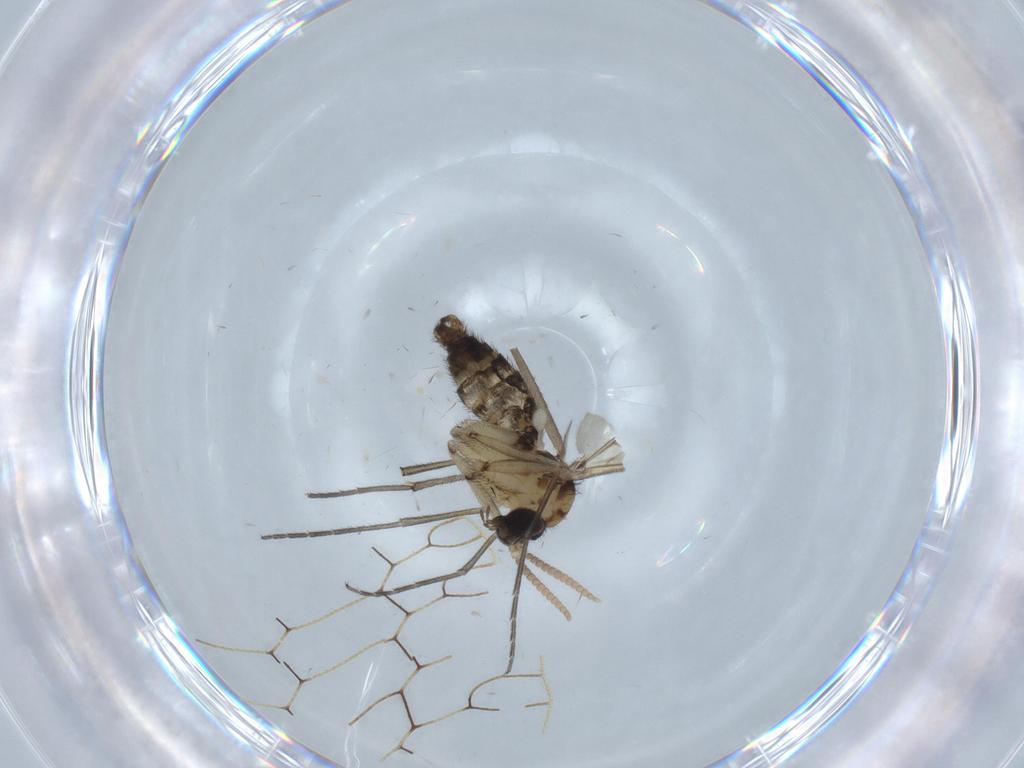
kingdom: Animalia
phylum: Arthropoda
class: Insecta
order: Diptera
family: Psychodidae
